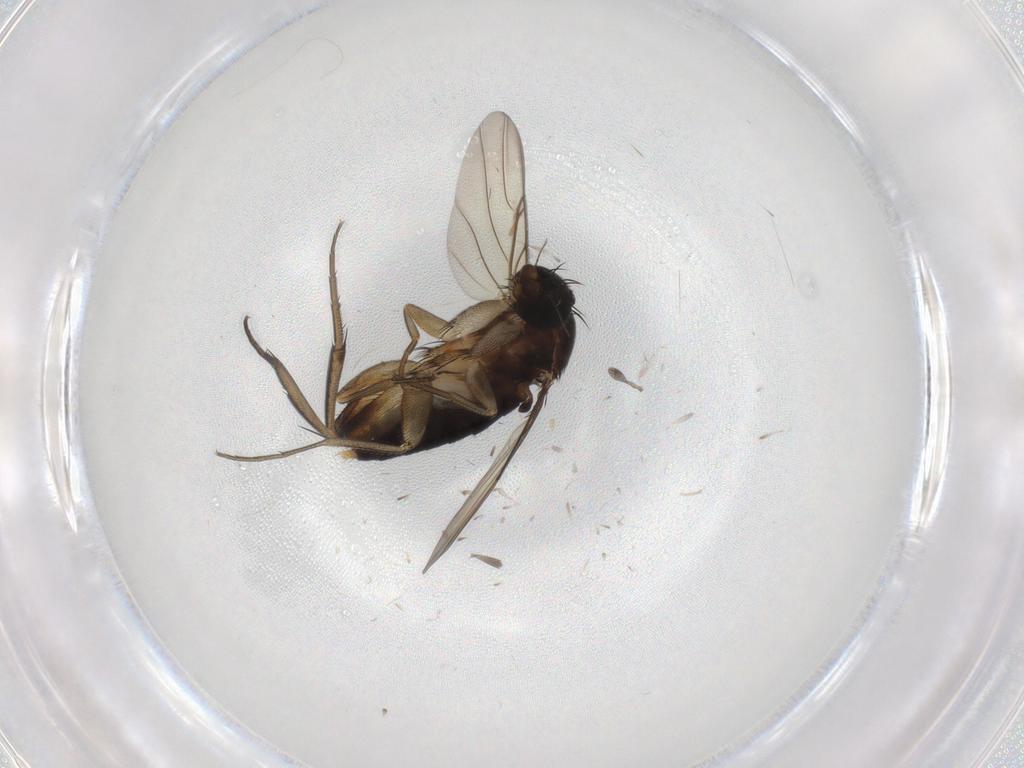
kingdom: Animalia
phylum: Arthropoda
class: Insecta
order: Diptera
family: Phoridae
